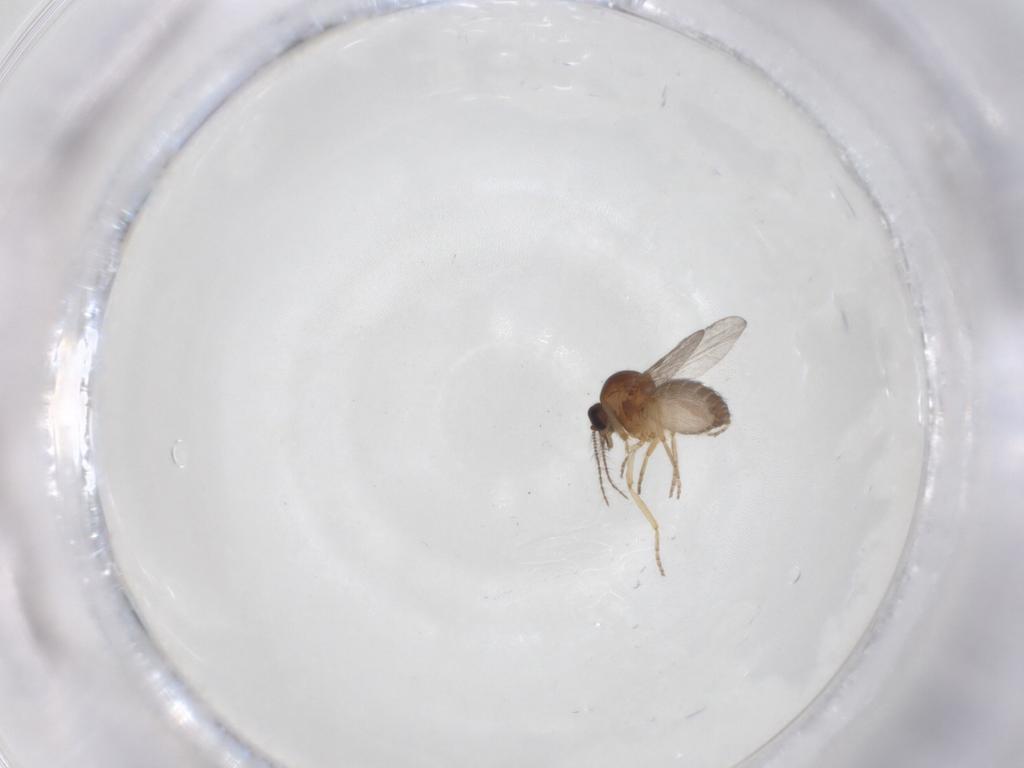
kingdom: Animalia
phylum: Arthropoda
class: Insecta
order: Diptera
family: Ceratopogonidae
